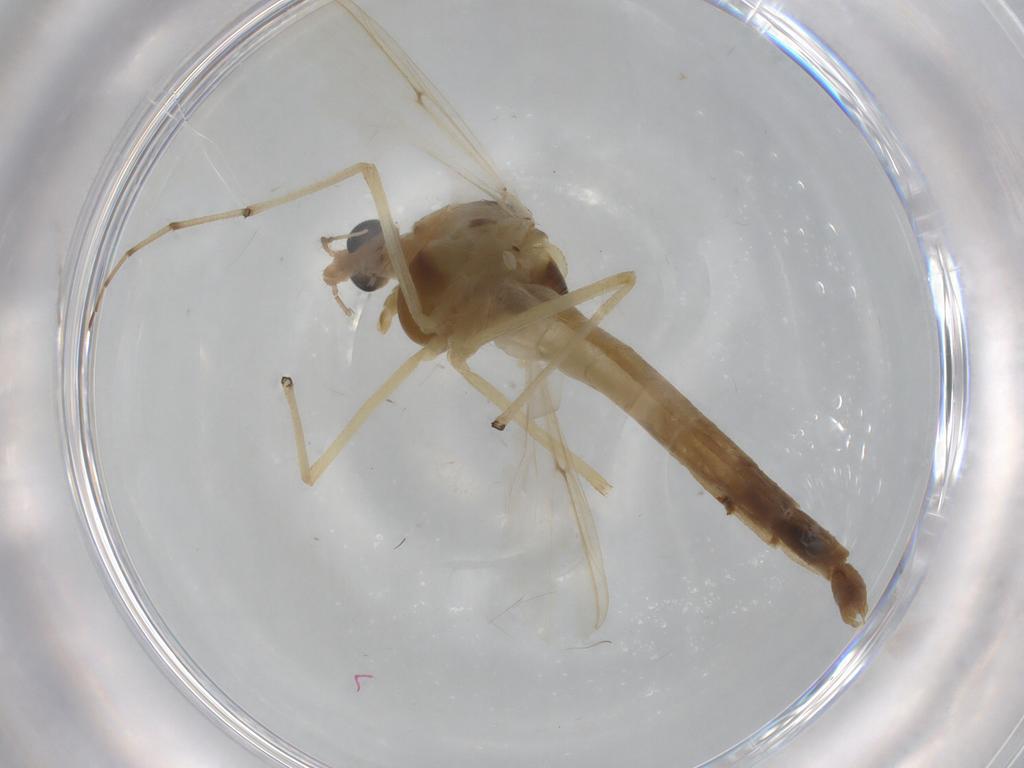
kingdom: Animalia
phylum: Arthropoda
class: Insecta
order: Diptera
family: Chironomidae
